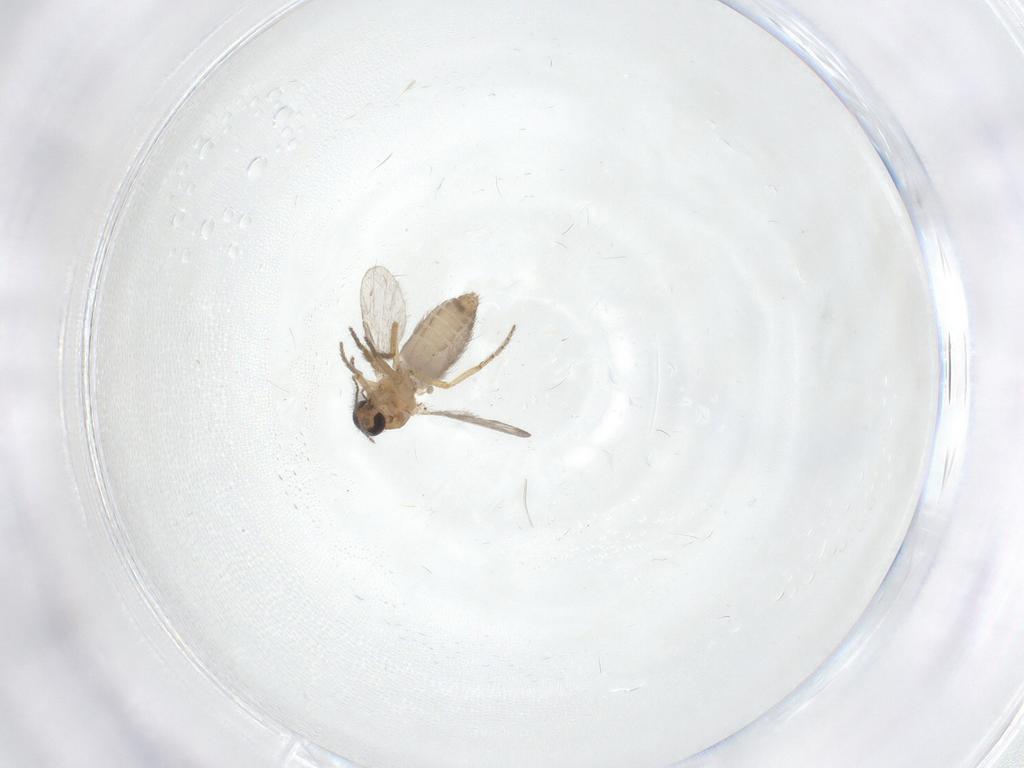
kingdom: Animalia
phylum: Arthropoda
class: Insecta
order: Diptera
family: Ceratopogonidae
